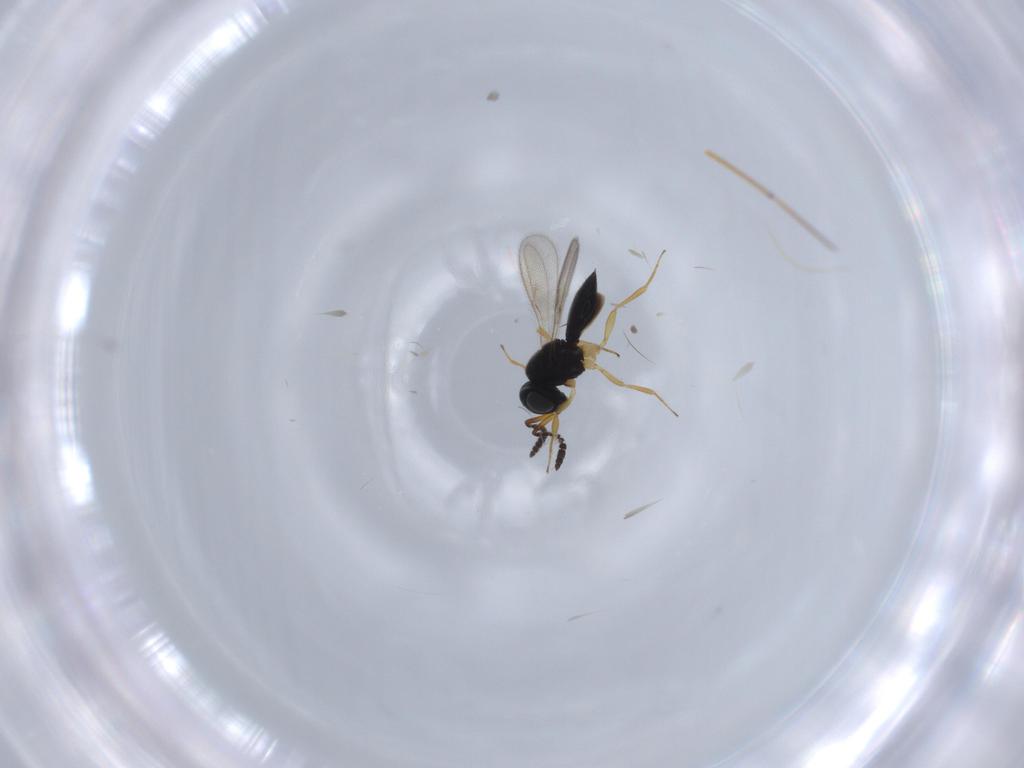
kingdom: Animalia
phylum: Arthropoda
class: Insecta
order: Hymenoptera
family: Scelionidae
